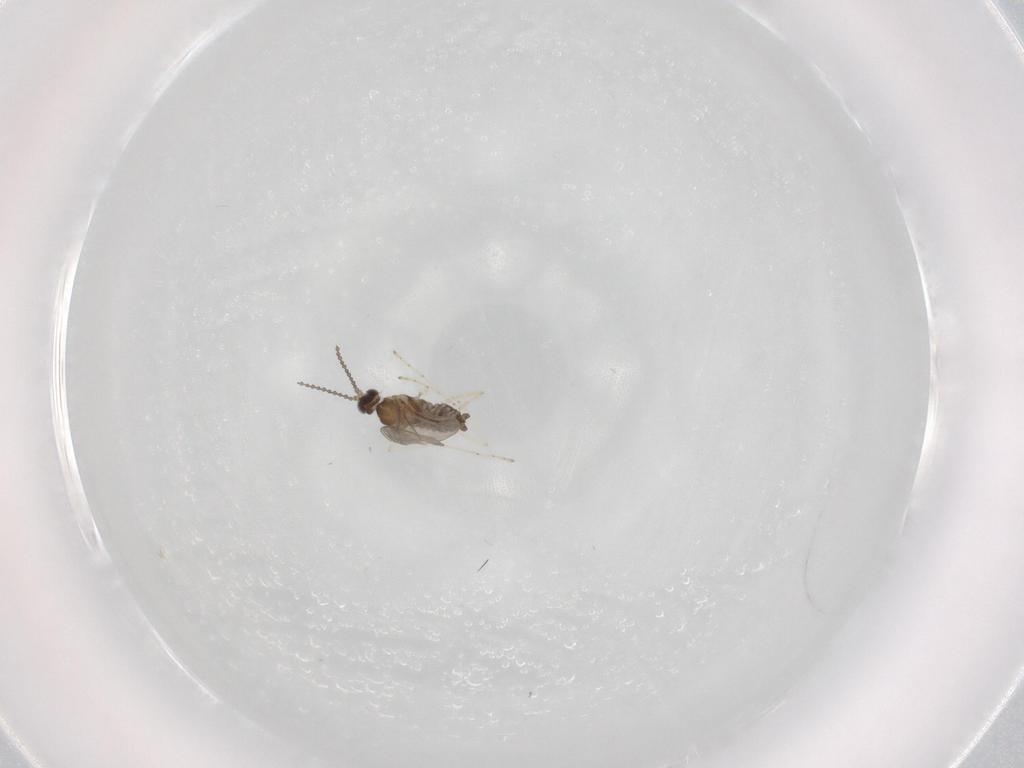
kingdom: Animalia
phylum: Arthropoda
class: Insecta
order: Diptera
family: Cecidomyiidae
